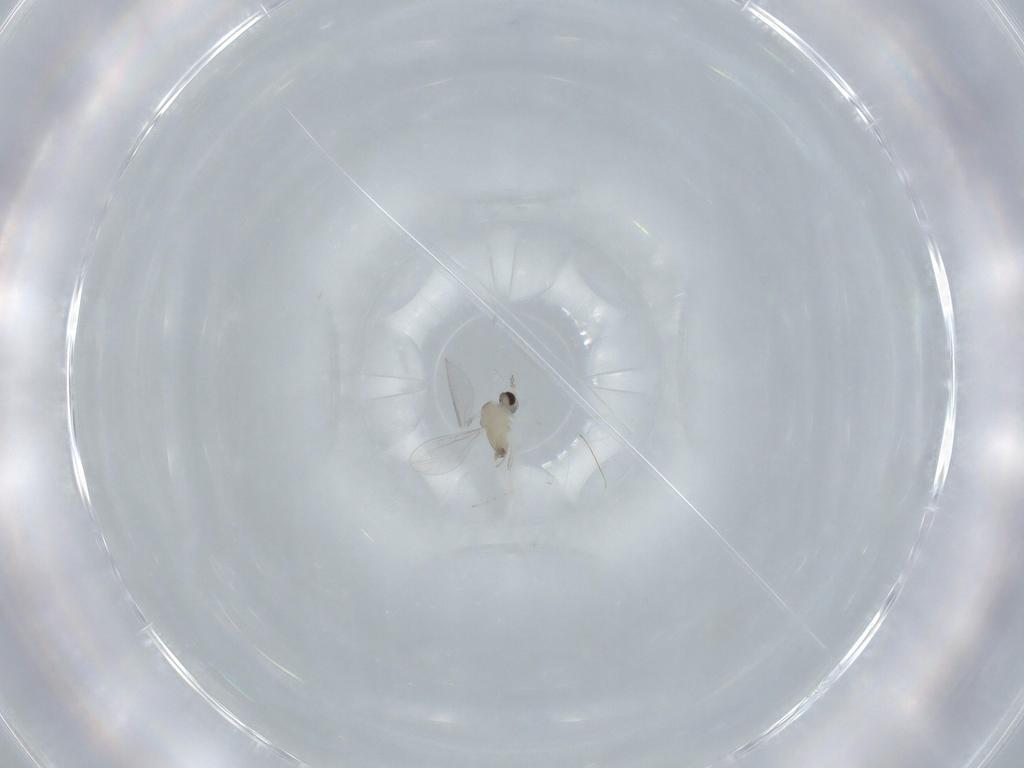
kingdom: Animalia
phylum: Arthropoda
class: Insecta
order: Diptera
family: Cecidomyiidae
